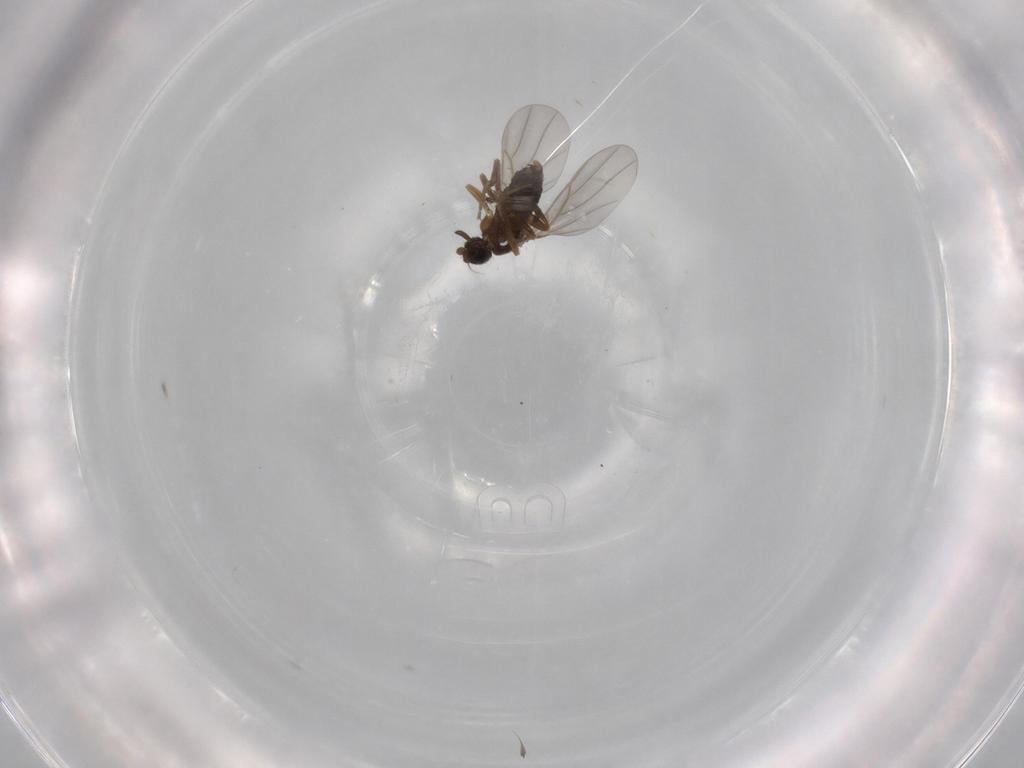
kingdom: Animalia
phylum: Arthropoda
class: Insecta
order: Diptera
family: Phoridae
